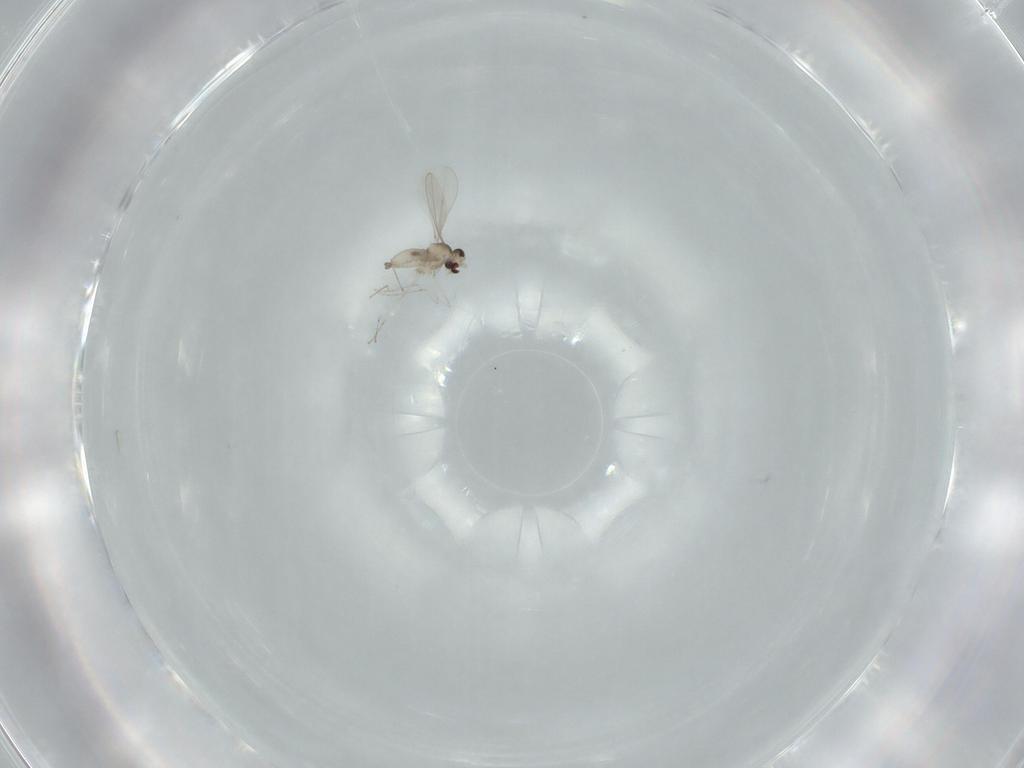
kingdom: Animalia
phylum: Arthropoda
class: Insecta
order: Diptera
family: Cecidomyiidae
